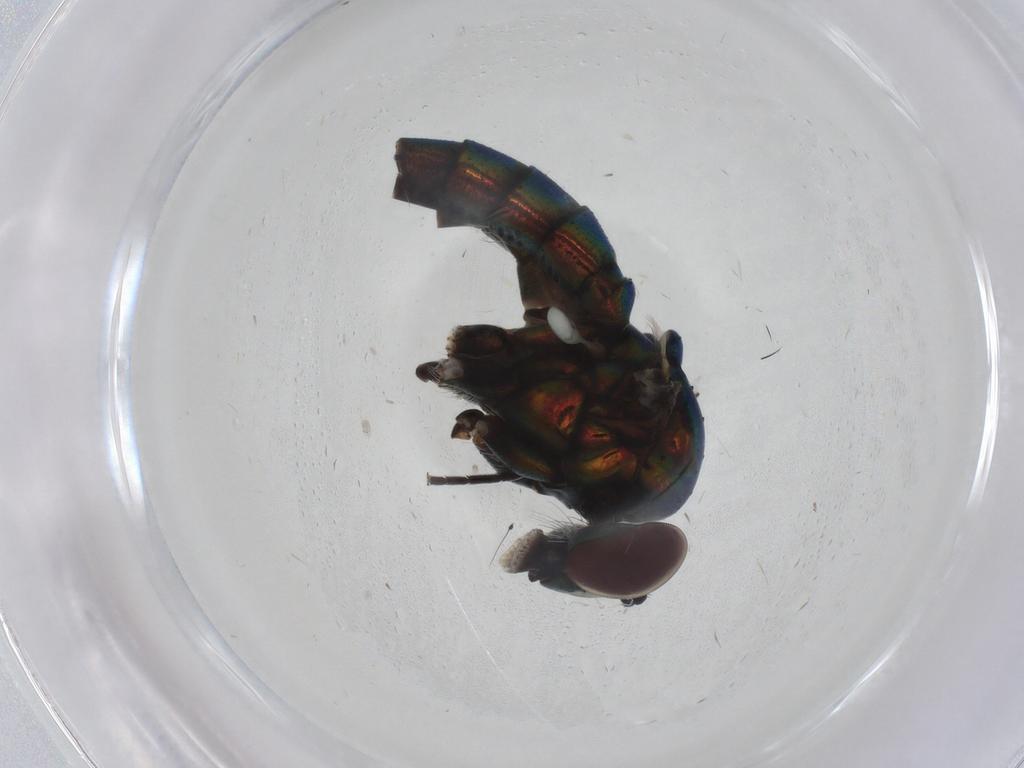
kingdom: Animalia
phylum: Arthropoda
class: Insecta
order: Diptera
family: Dolichopodidae
